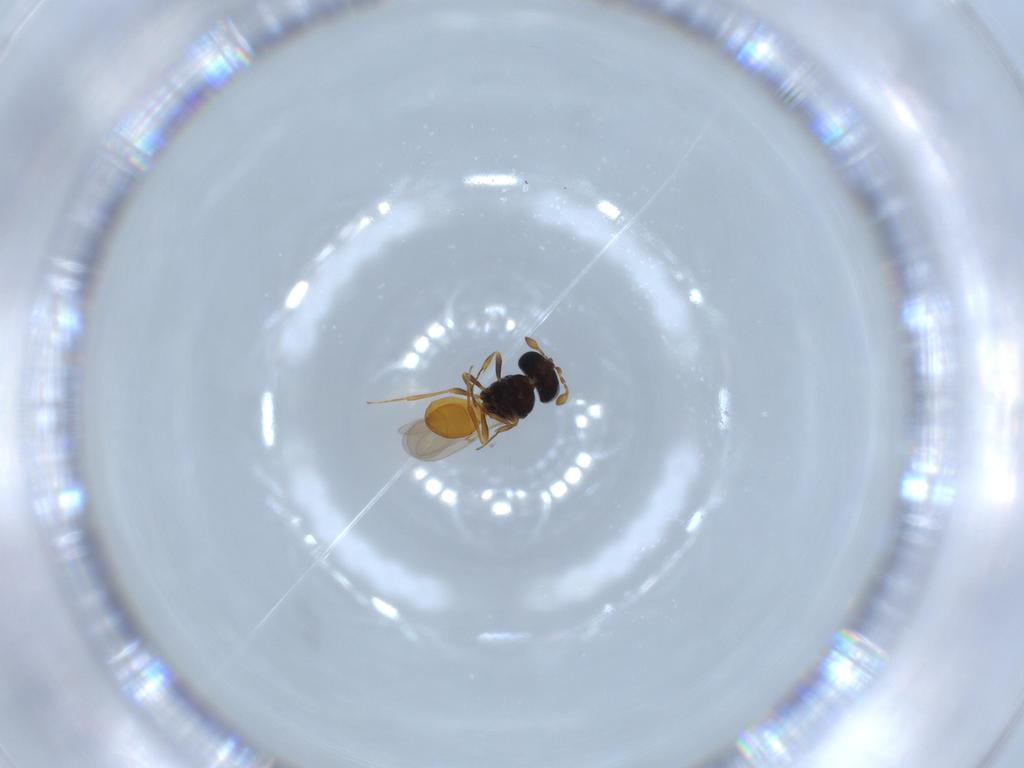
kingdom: Animalia
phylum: Arthropoda
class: Insecta
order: Hymenoptera
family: Scelionidae
